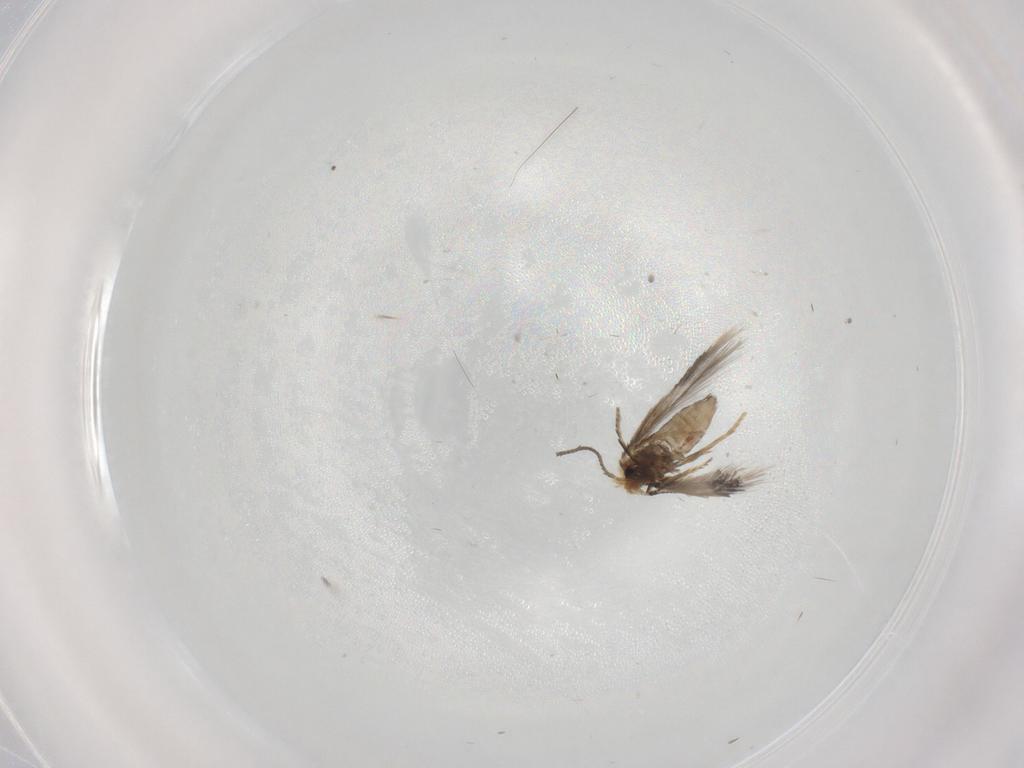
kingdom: Animalia
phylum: Arthropoda
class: Insecta
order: Lepidoptera
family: Nepticulidae
